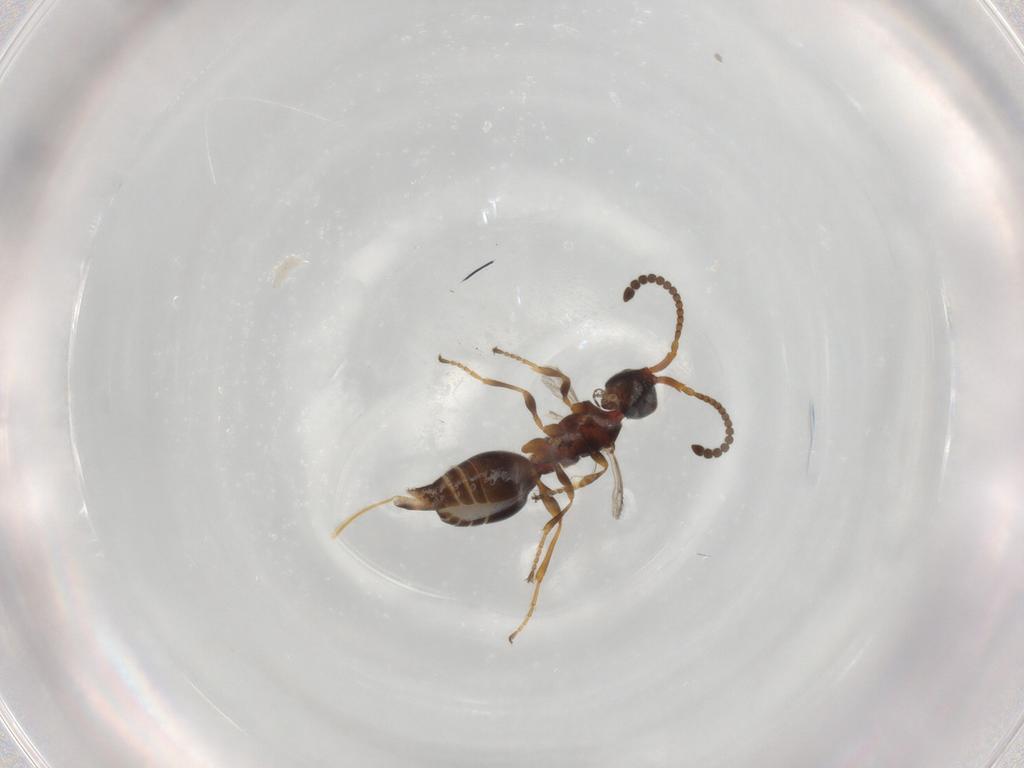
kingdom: Animalia
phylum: Arthropoda
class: Insecta
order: Hymenoptera
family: Diapriidae
